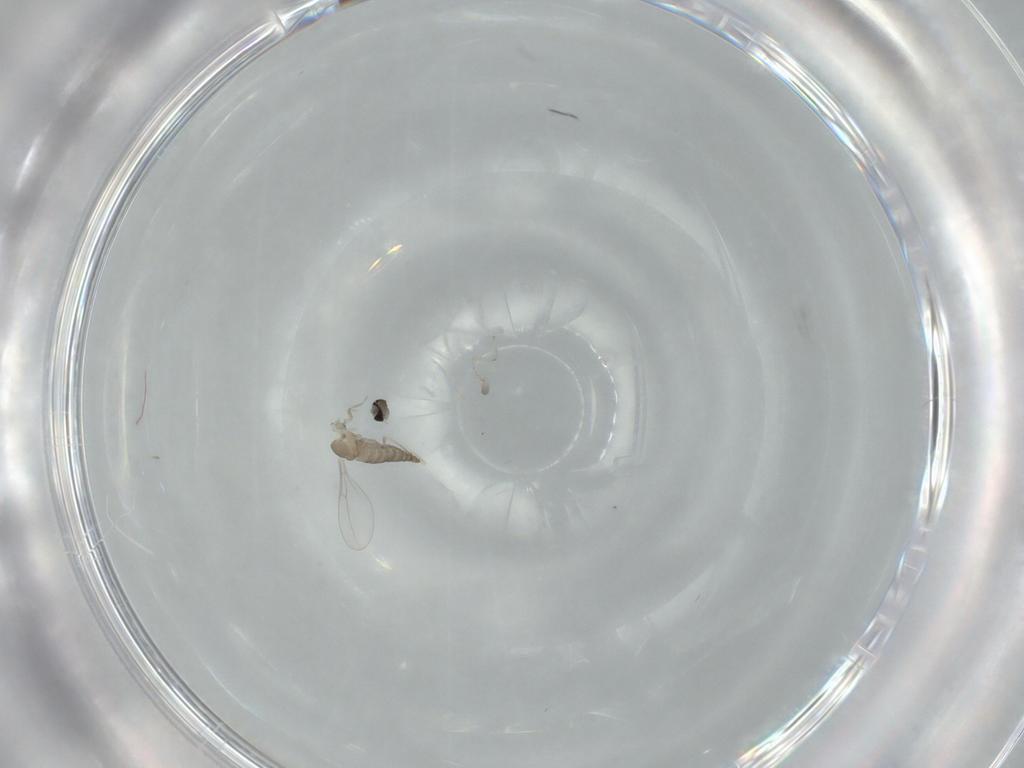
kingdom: Animalia
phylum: Arthropoda
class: Insecta
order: Diptera
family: Cecidomyiidae
